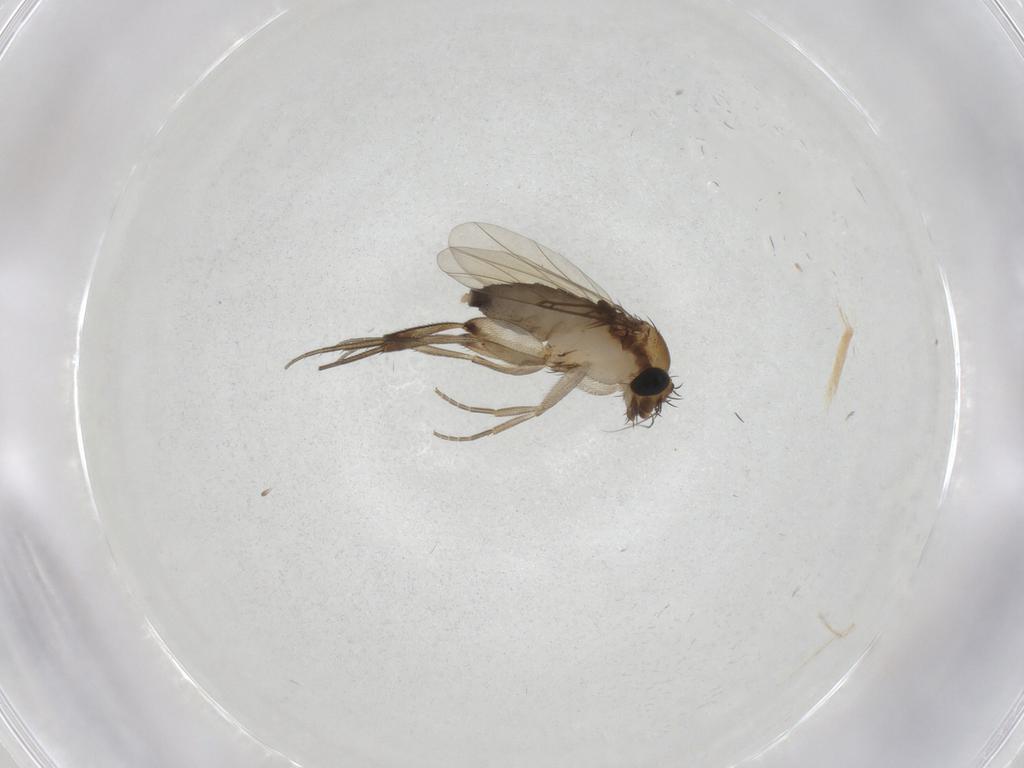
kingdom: Animalia
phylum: Arthropoda
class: Insecta
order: Diptera
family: Phoridae
